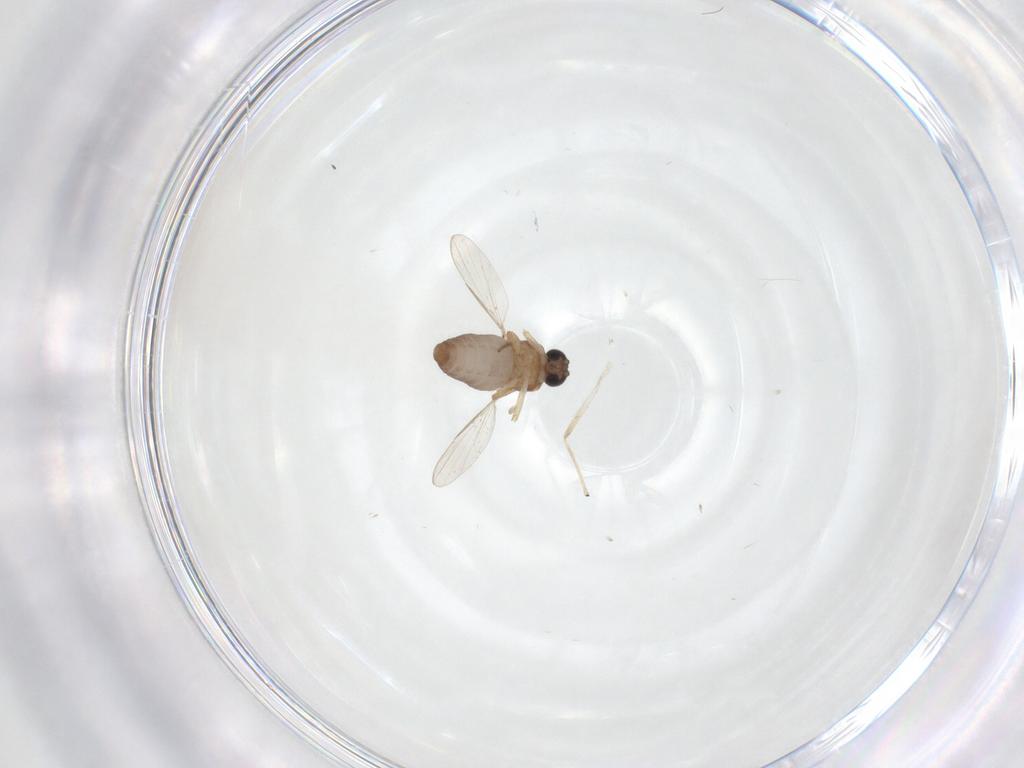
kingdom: Animalia
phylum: Arthropoda
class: Insecta
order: Diptera
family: Ceratopogonidae
